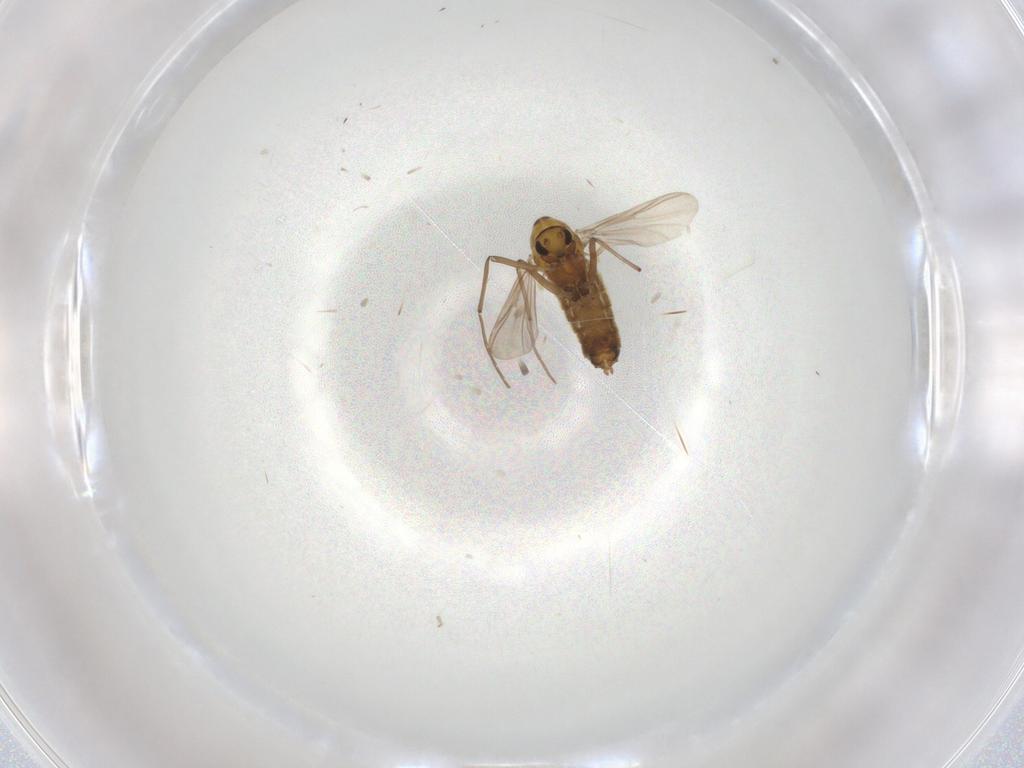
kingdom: Animalia
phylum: Arthropoda
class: Insecta
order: Diptera
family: Chironomidae
